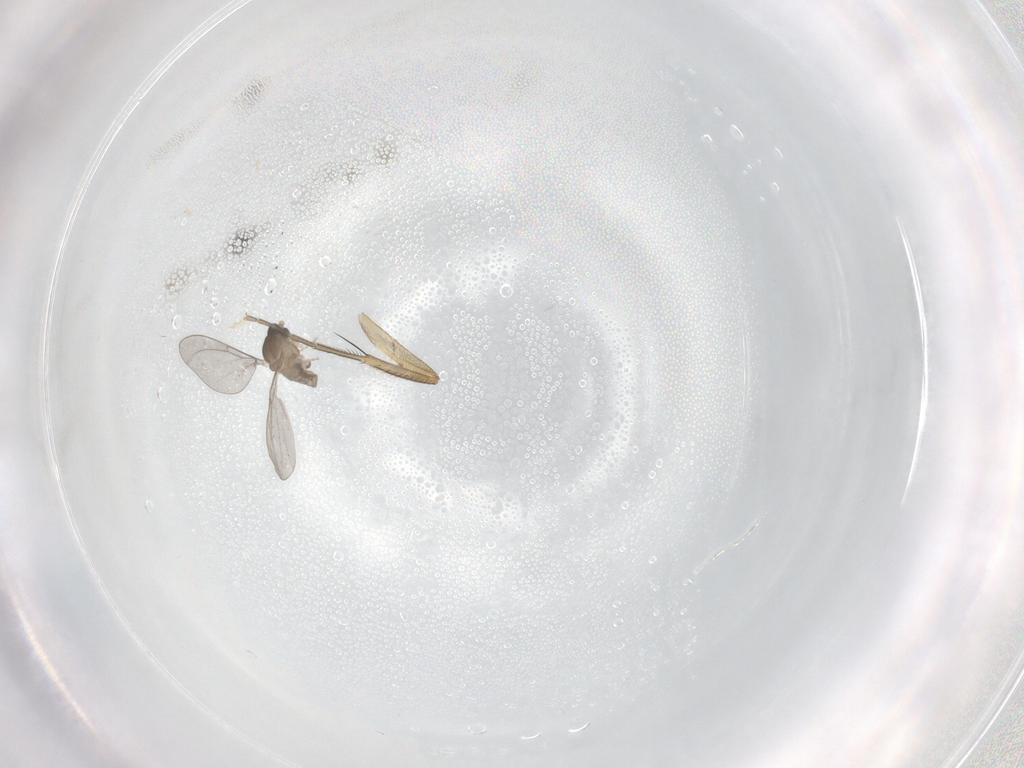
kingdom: Animalia
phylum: Arthropoda
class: Insecta
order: Diptera
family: Cecidomyiidae
